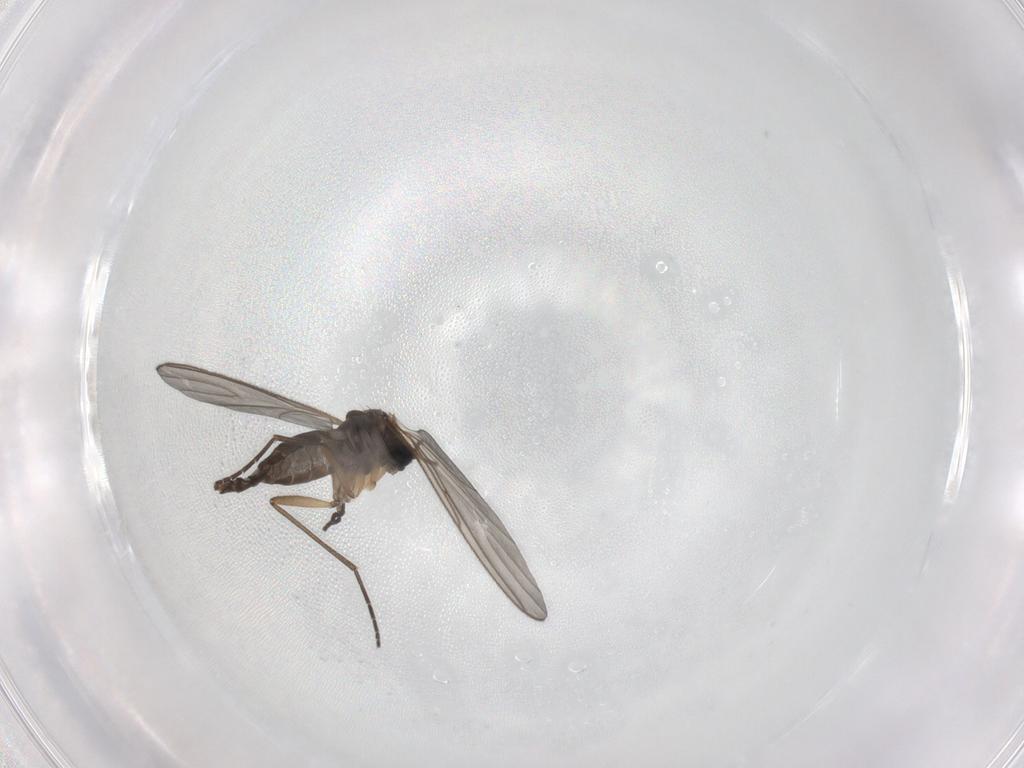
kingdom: Animalia
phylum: Arthropoda
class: Insecta
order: Diptera
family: Sciaridae
